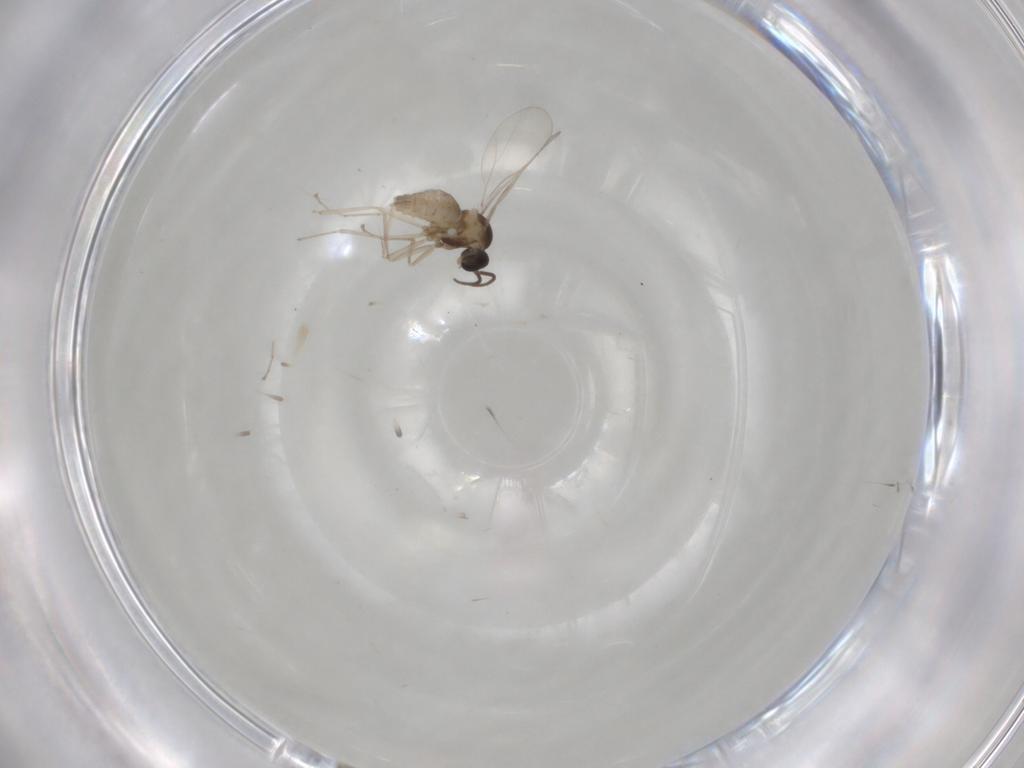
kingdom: Animalia
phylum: Arthropoda
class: Insecta
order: Diptera
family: Cecidomyiidae
